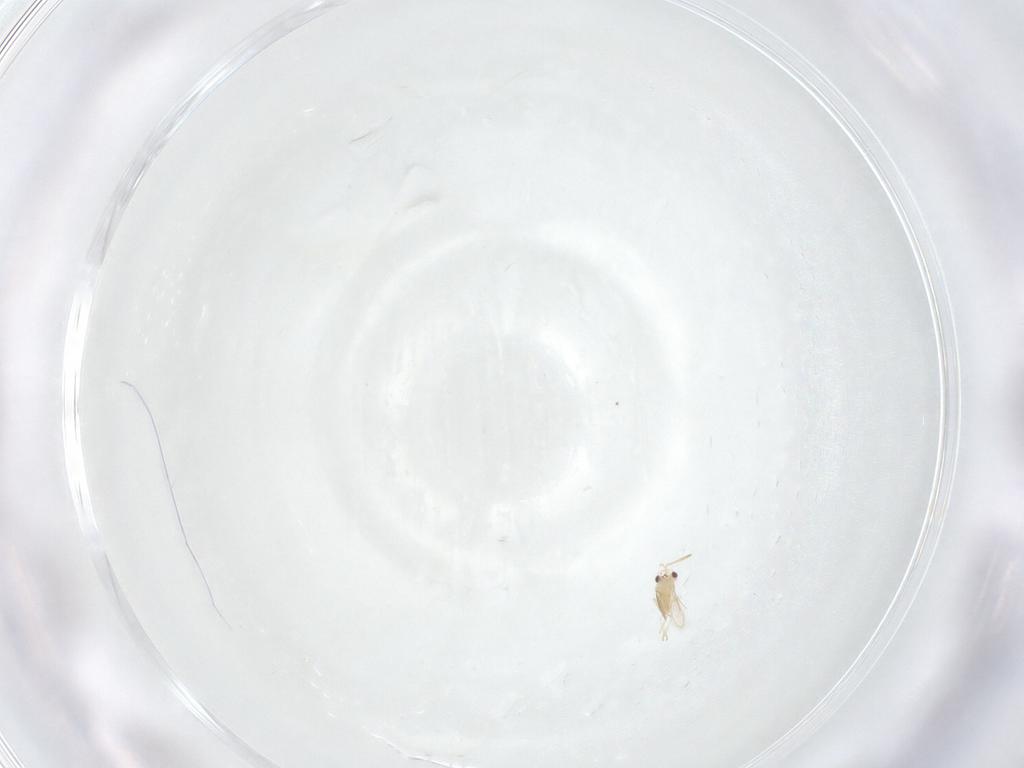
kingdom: Animalia
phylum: Arthropoda
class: Insecta
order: Hymenoptera
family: Aphelinidae
